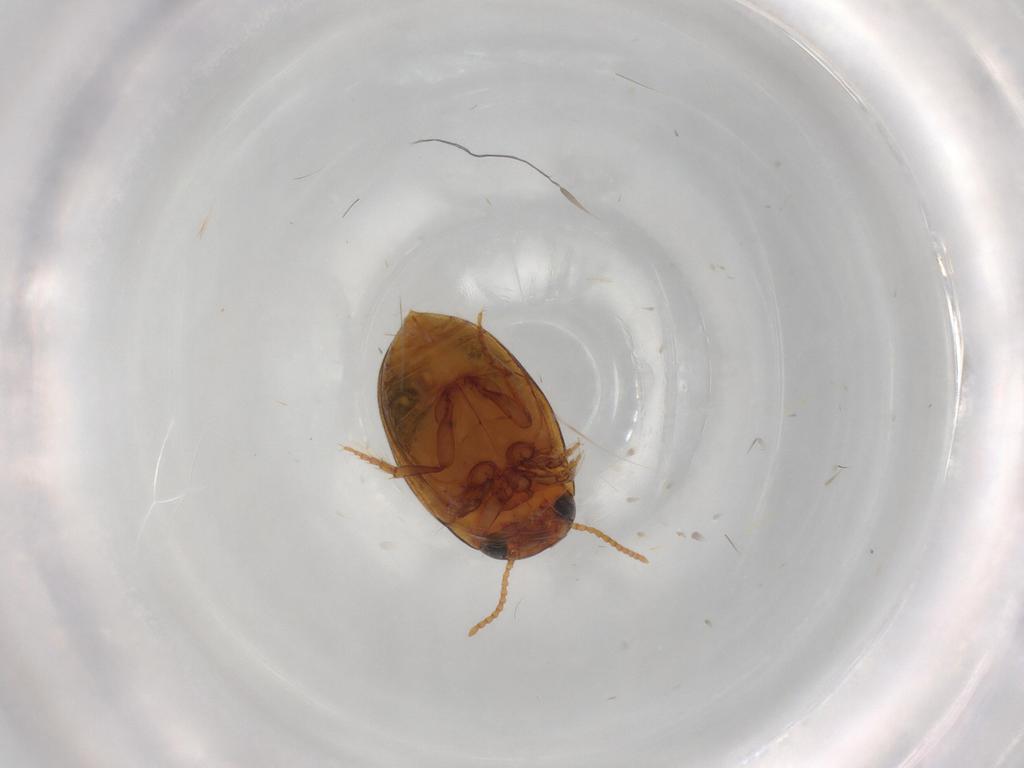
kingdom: Animalia
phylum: Arthropoda
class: Insecta
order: Coleoptera
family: Dytiscidae
